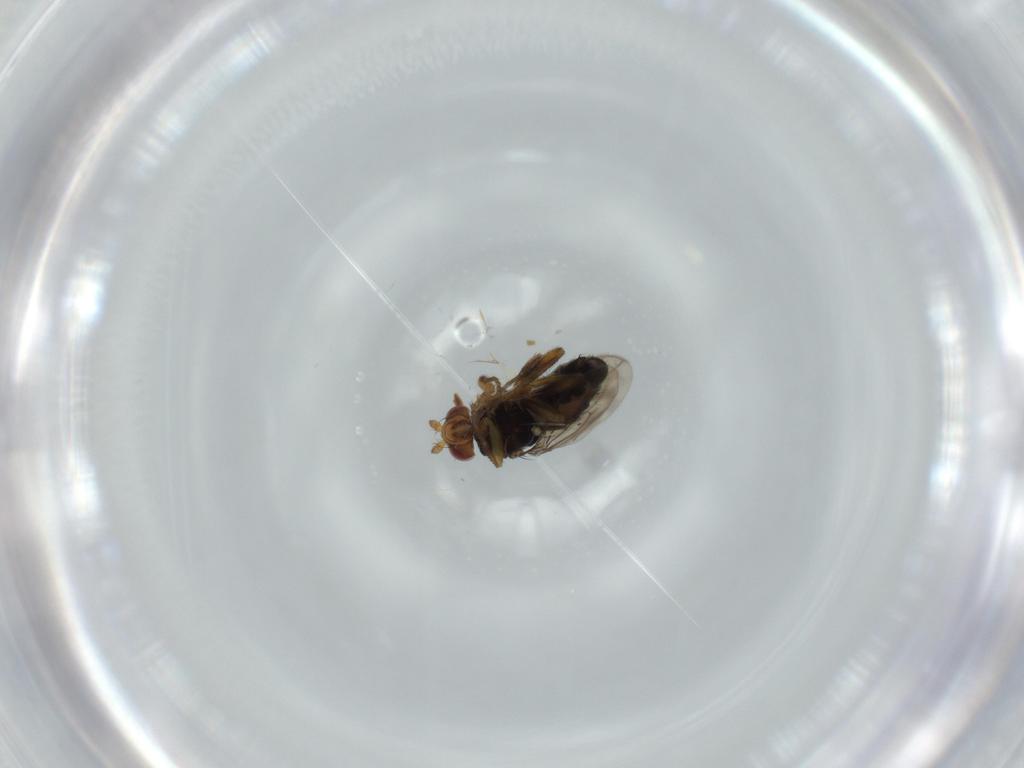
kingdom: Animalia
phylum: Arthropoda
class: Insecta
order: Diptera
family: Sphaeroceridae
